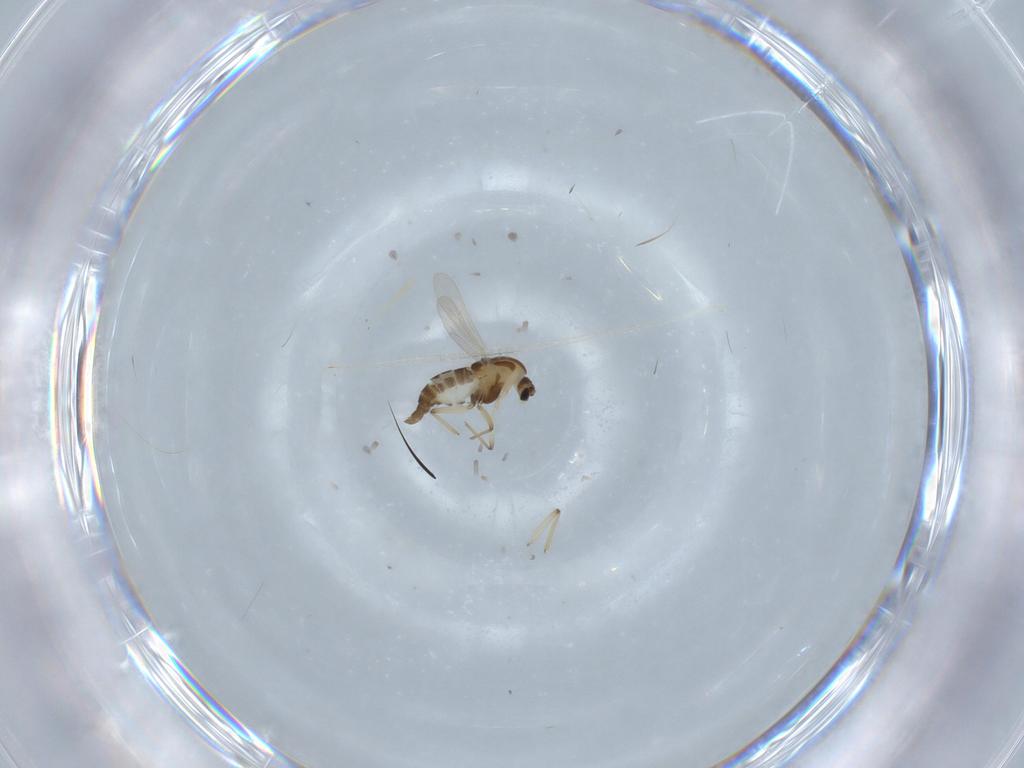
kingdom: Animalia
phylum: Arthropoda
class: Insecta
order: Diptera
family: Chironomidae
